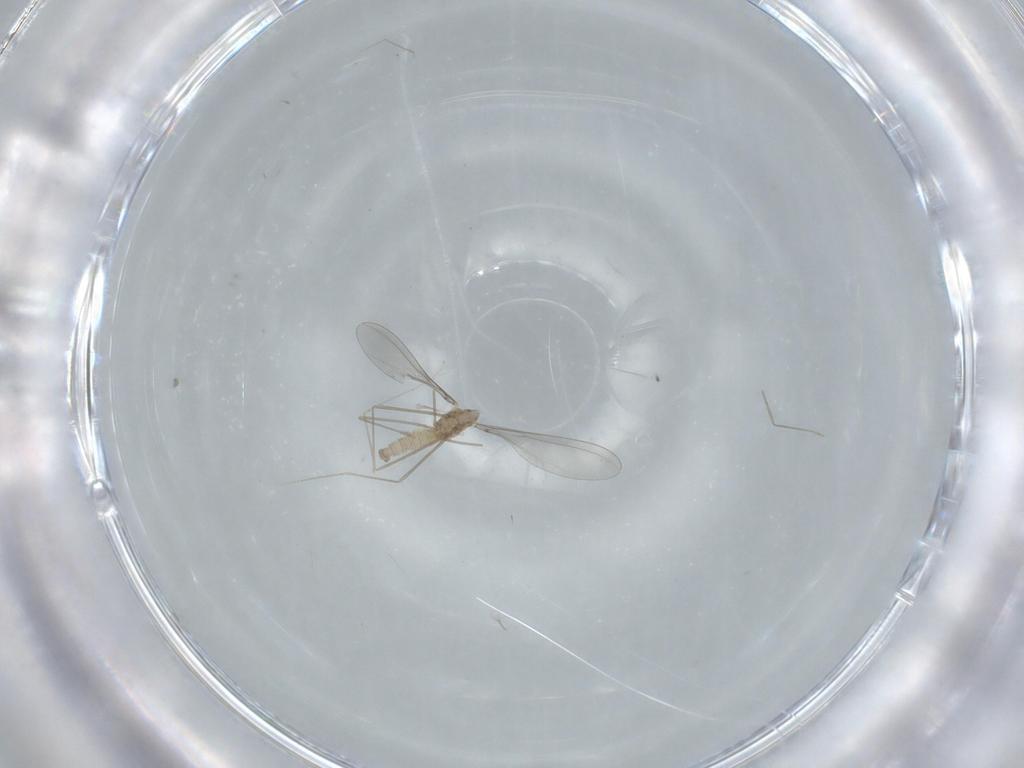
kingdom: Animalia
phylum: Arthropoda
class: Insecta
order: Diptera
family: Cecidomyiidae
